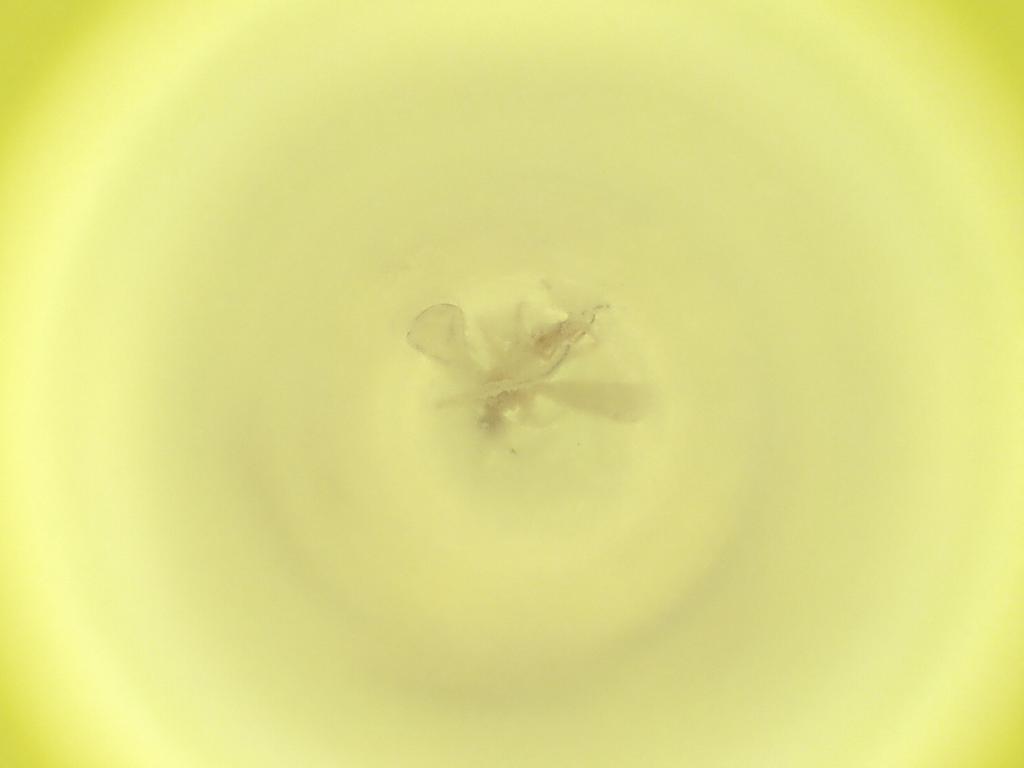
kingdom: Animalia
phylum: Arthropoda
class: Insecta
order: Diptera
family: Cecidomyiidae
